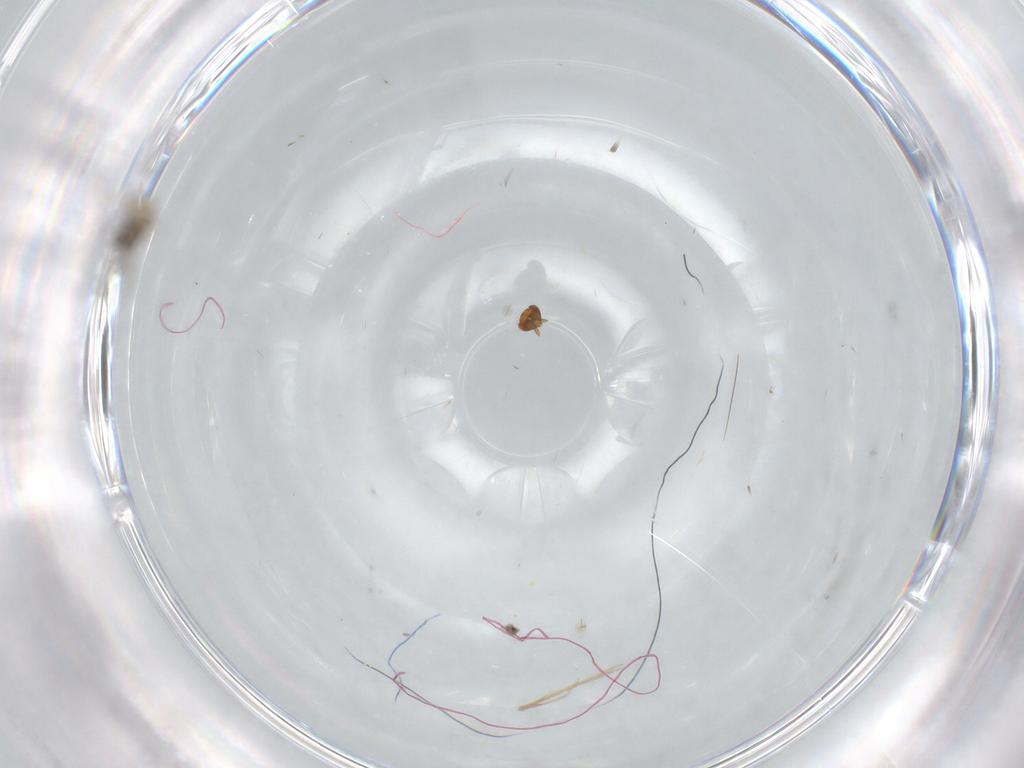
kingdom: Animalia
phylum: Arthropoda
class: Insecta
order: Hymenoptera
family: Trichogrammatidae
